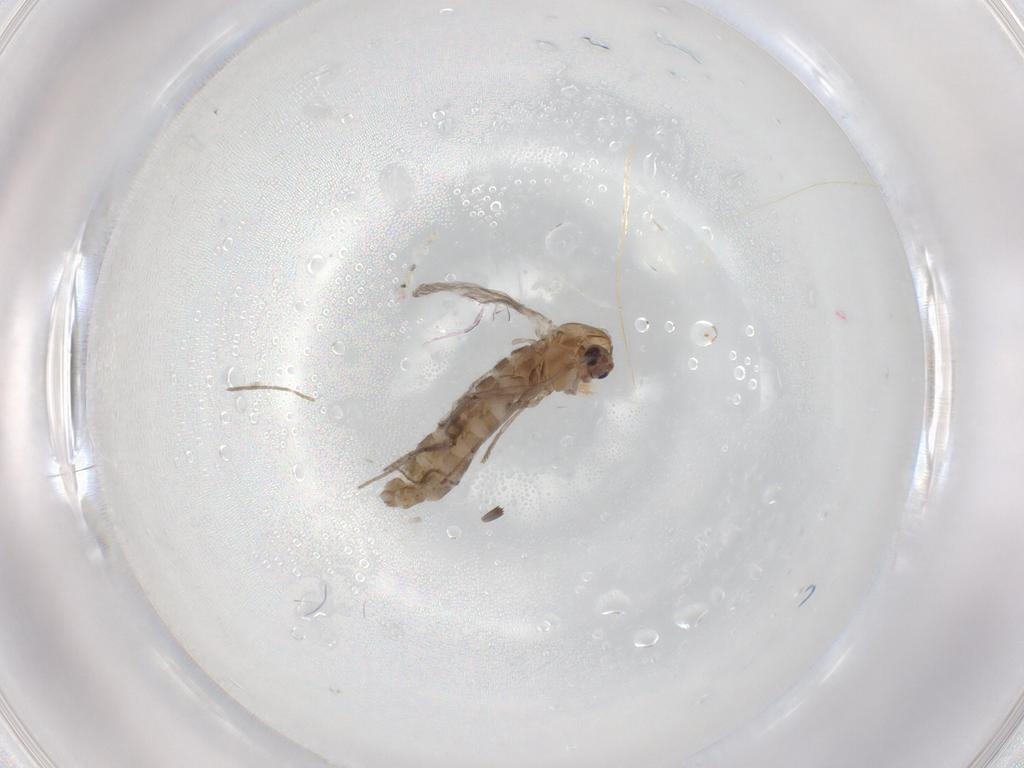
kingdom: Animalia
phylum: Arthropoda
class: Insecta
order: Diptera
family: Chironomidae
